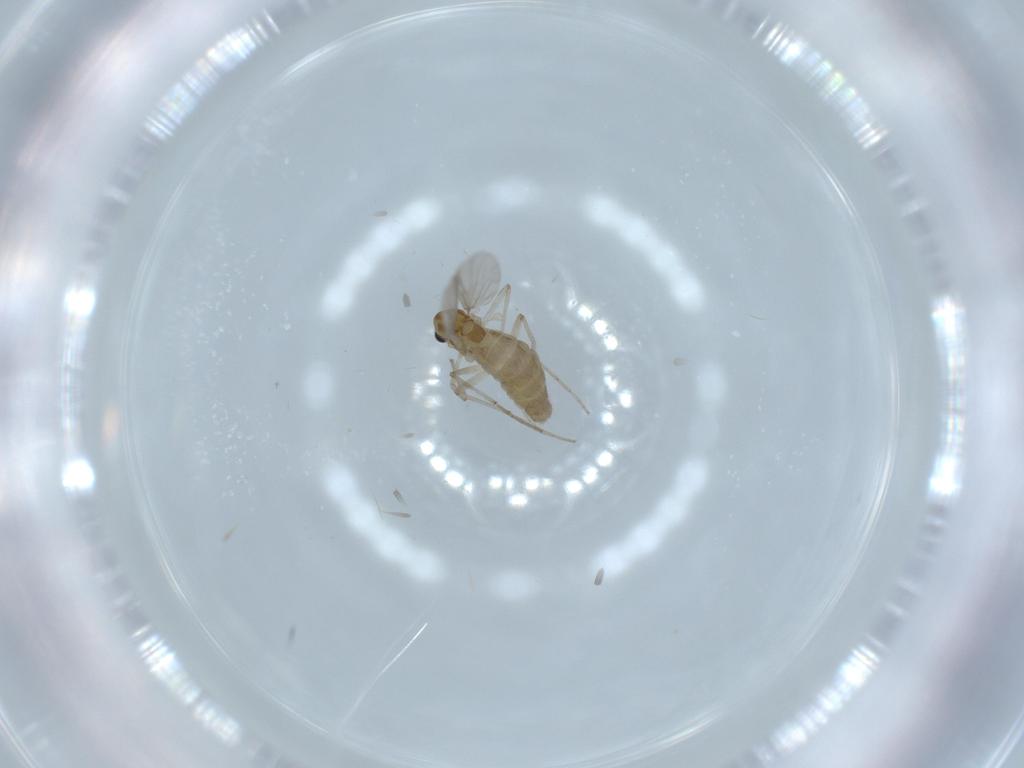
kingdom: Animalia
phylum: Arthropoda
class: Insecta
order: Diptera
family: Chironomidae
